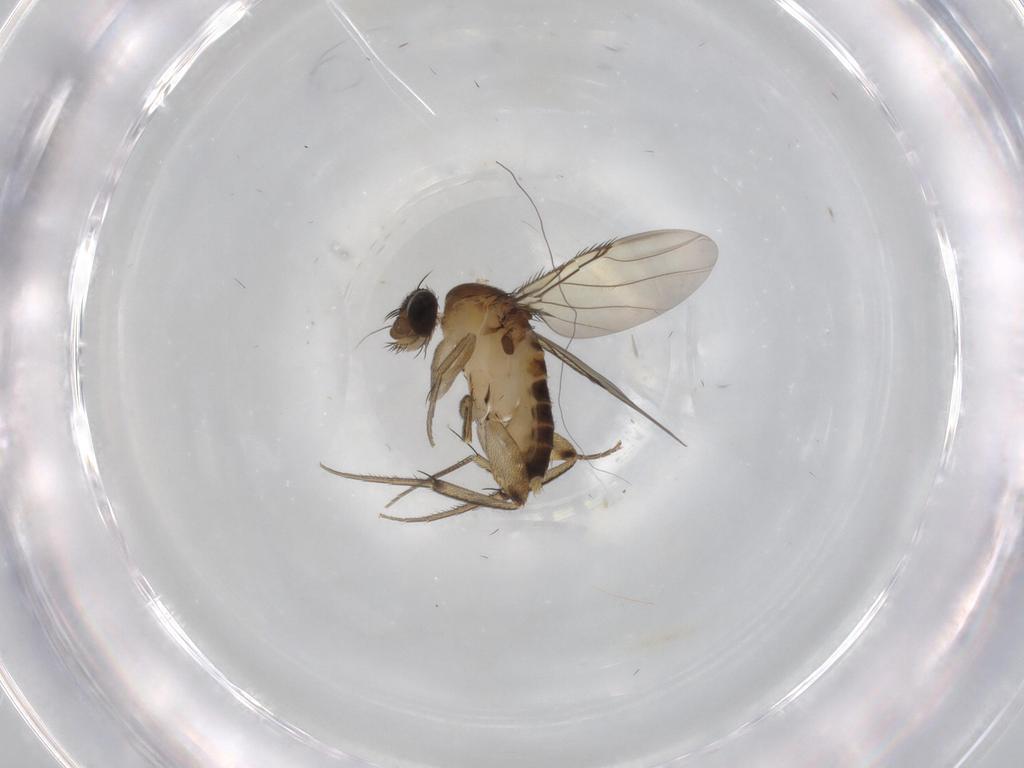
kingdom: Animalia
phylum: Arthropoda
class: Insecta
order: Diptera
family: Phoridae
